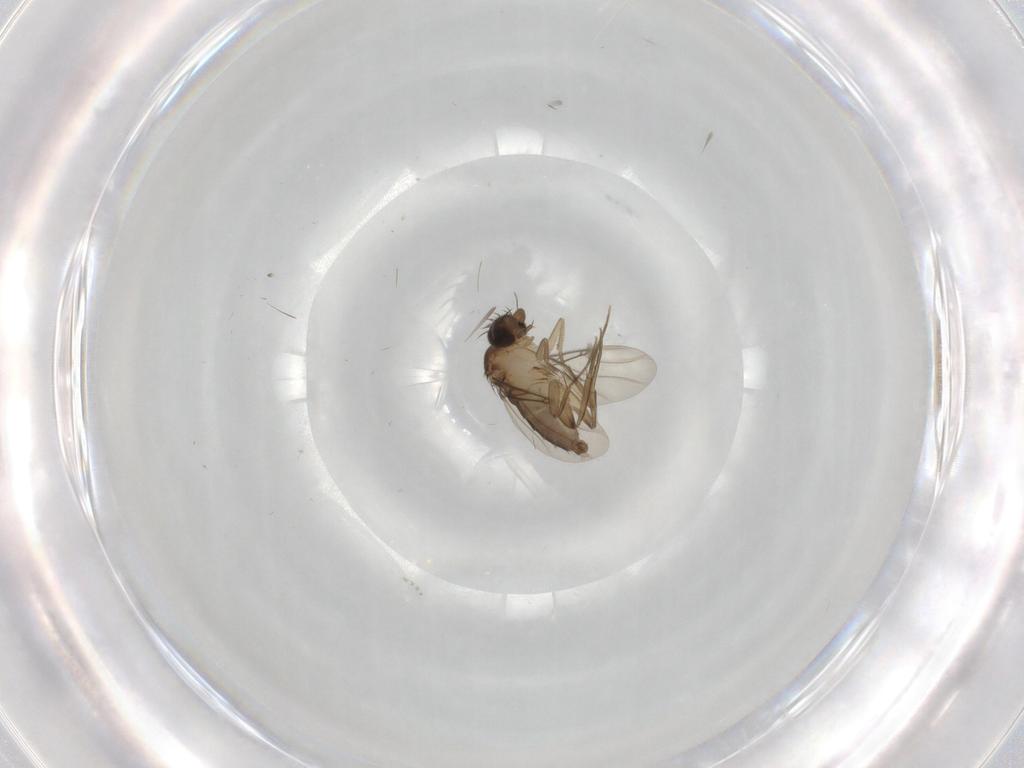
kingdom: Animalia
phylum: Arthropoda
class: Insecta
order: Diptera
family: Phoridae
